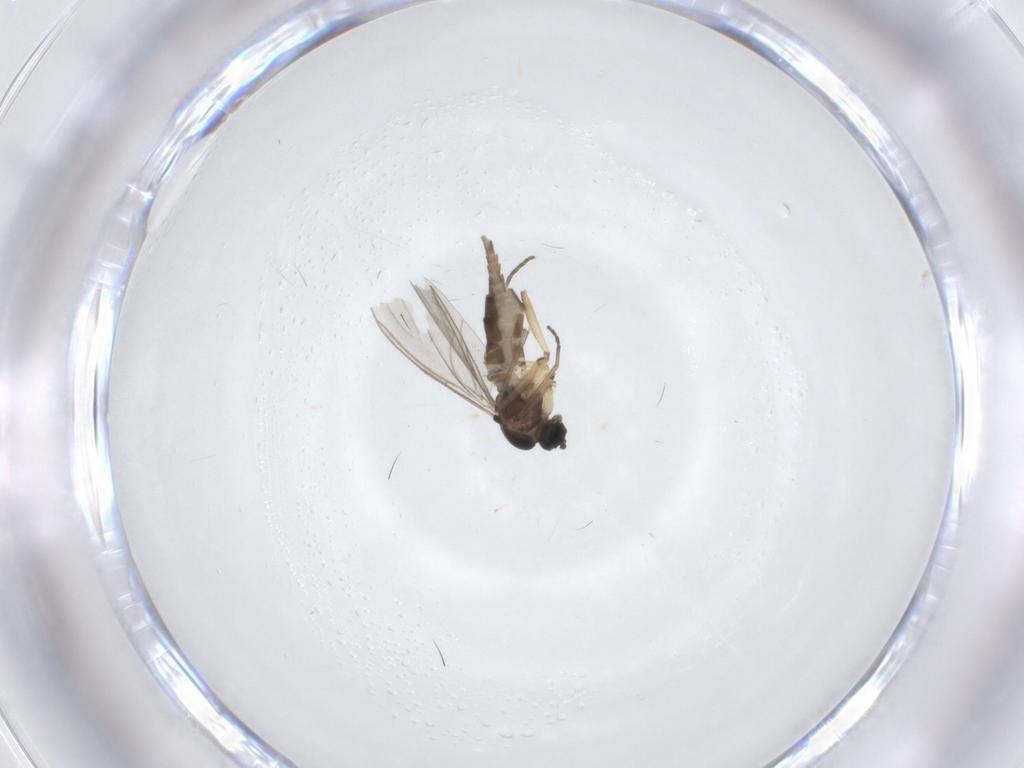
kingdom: Animalia
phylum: Arthropoda
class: Insecta
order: Diptera
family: Sciaridae
